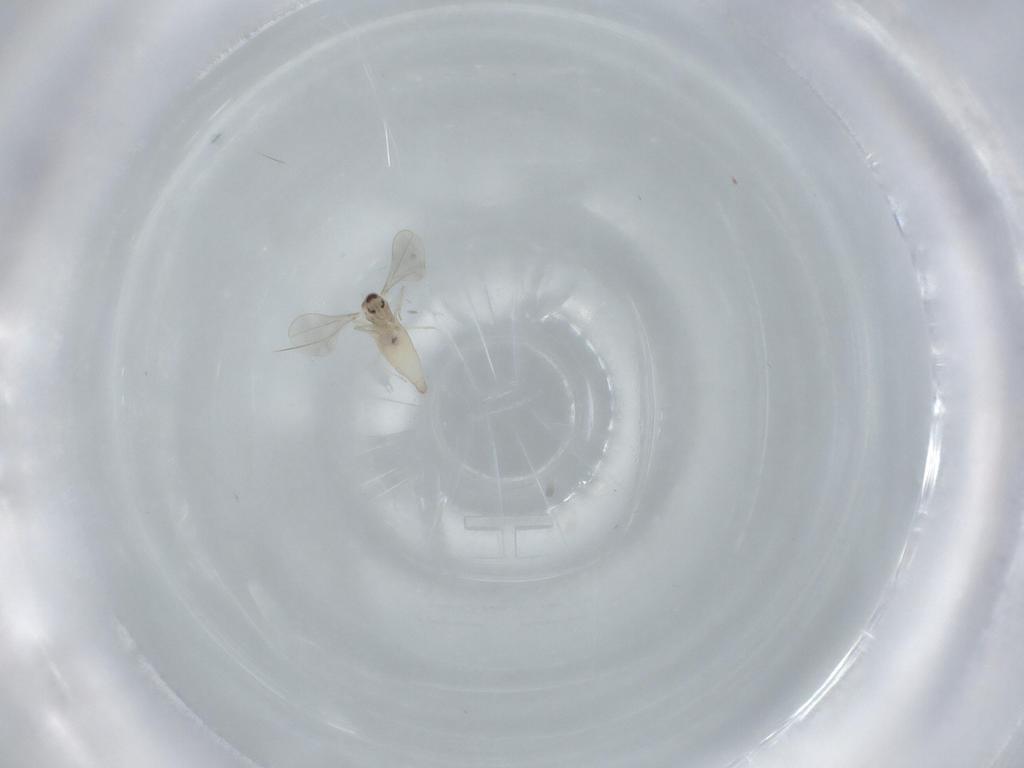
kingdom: Animalia
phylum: Arthropoda
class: Insecta
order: Diptera
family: Cecidomyiidae
